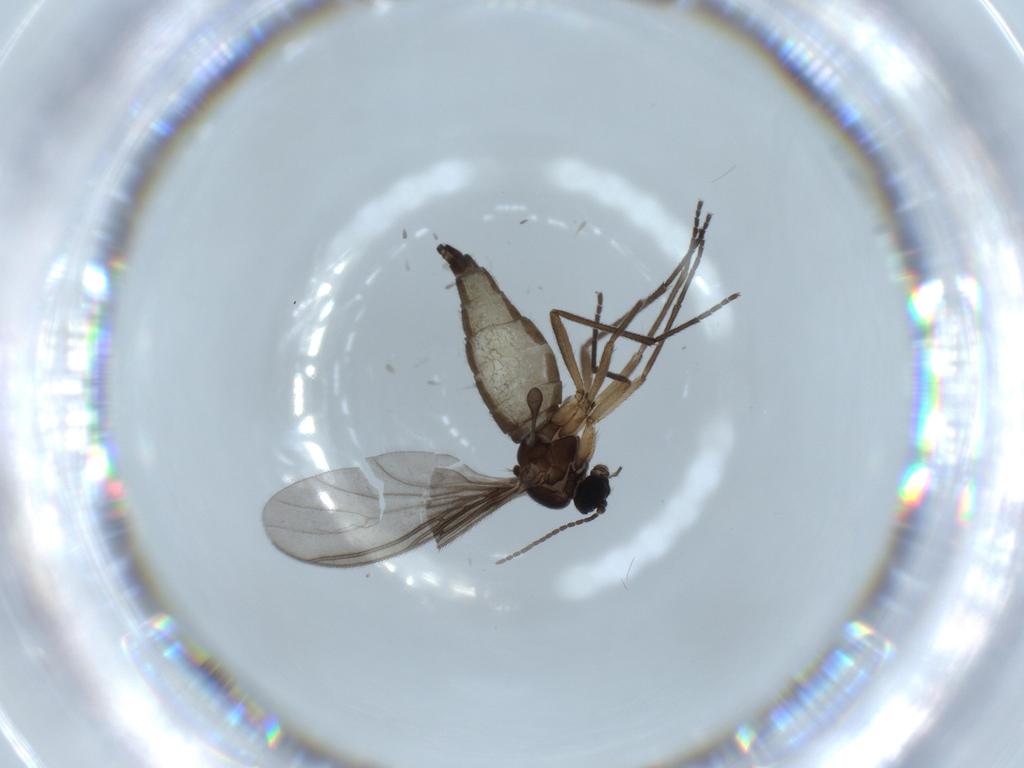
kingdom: Animalia
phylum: Arthropoda
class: Insecta
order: Diptera
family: Sciaridae
